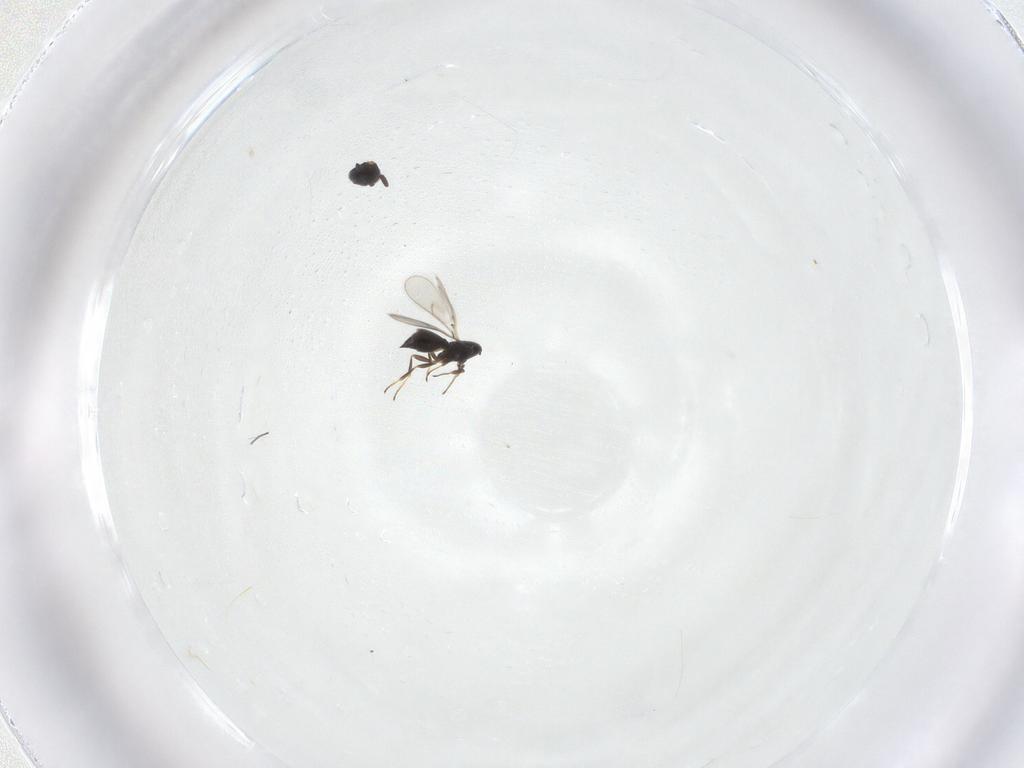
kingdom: Animalia
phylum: Arthropoda
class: Insecta
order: Hymenoptera
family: Scelionidae
